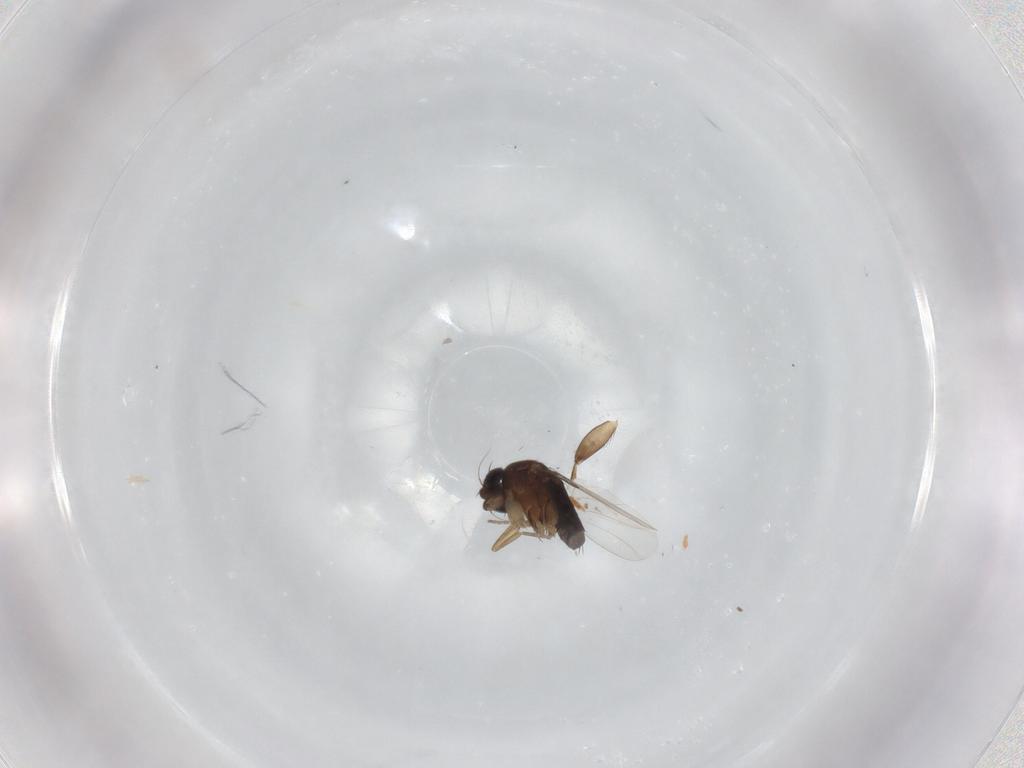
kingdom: Animalia
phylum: Arthropoda
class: Insecta
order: Diptera
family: Phoridae
